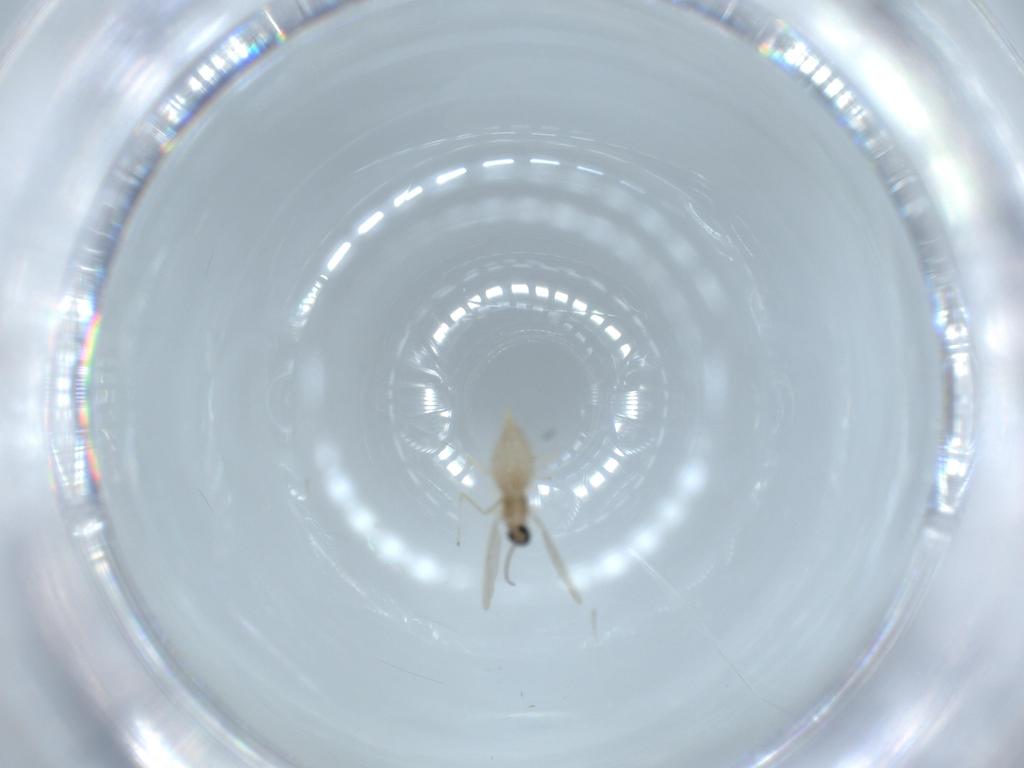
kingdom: Animalia
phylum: Arthropoda
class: Insecta
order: Diptera
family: Cecidomyiidae
